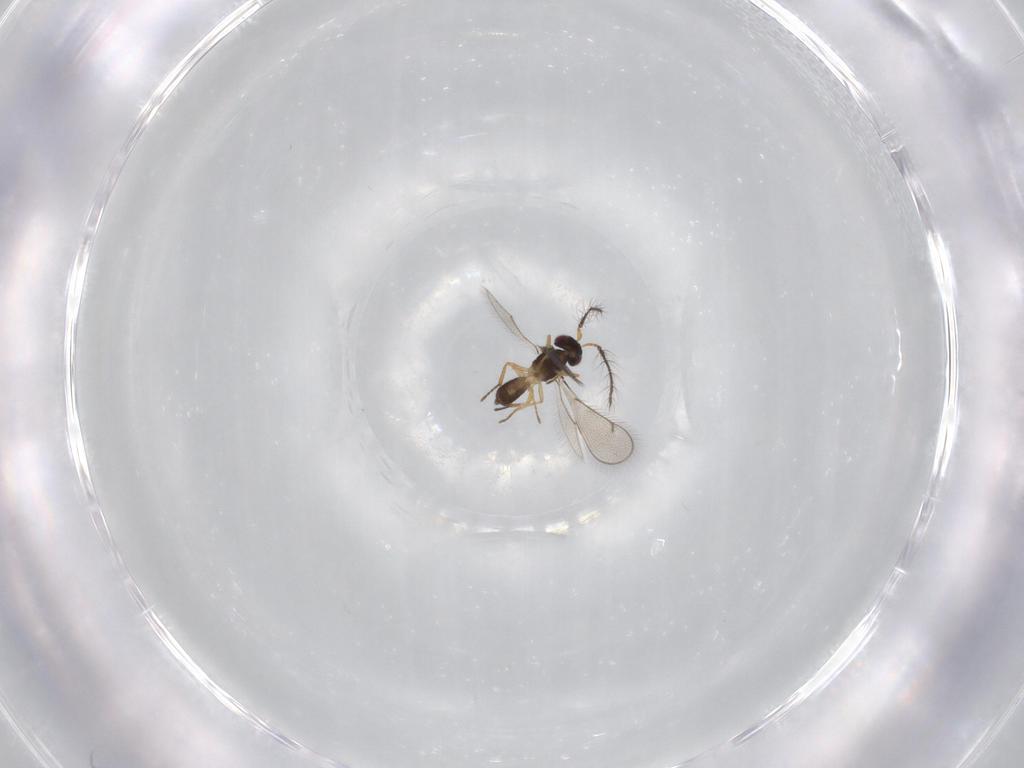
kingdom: Animalia
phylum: Arthropoda
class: Insecta
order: Hymenoptera
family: Eulophidae
